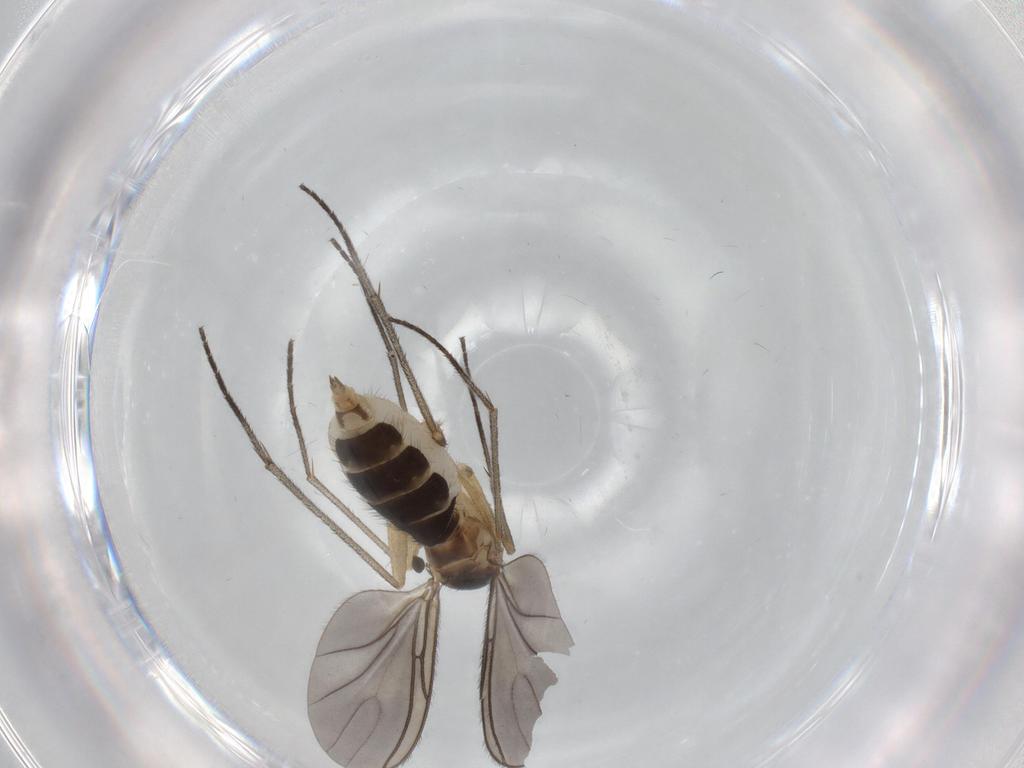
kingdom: Animalia
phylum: Arthropoda
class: Insecta
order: Diptera
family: Sciaridae
